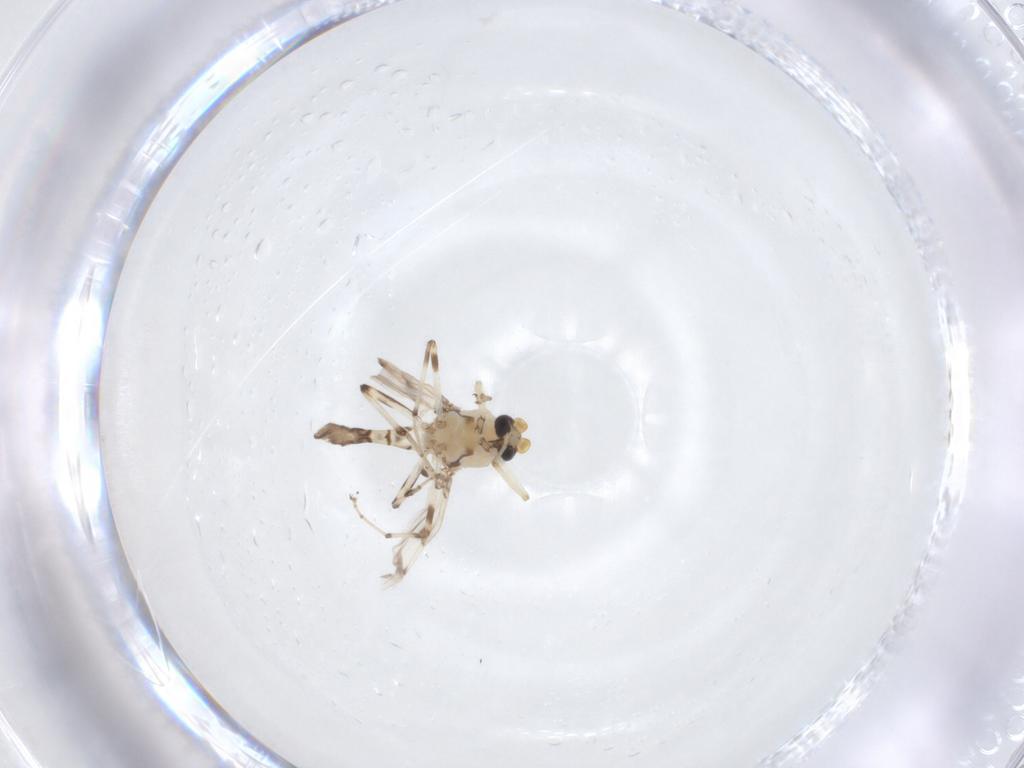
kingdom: Animalia
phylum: Arthropoda
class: Insecta
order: Diptera
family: Ceratopogonidae
